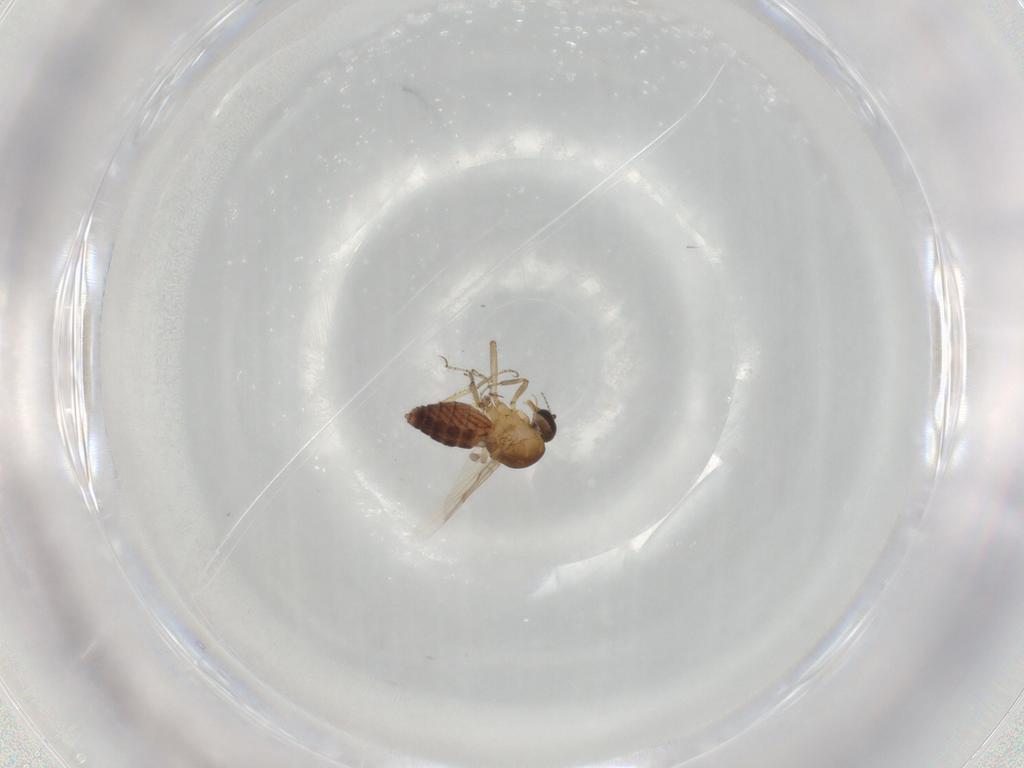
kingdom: Animalia
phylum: Arthropoda
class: Insecta
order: Diptera
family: Ceratopogonidae
